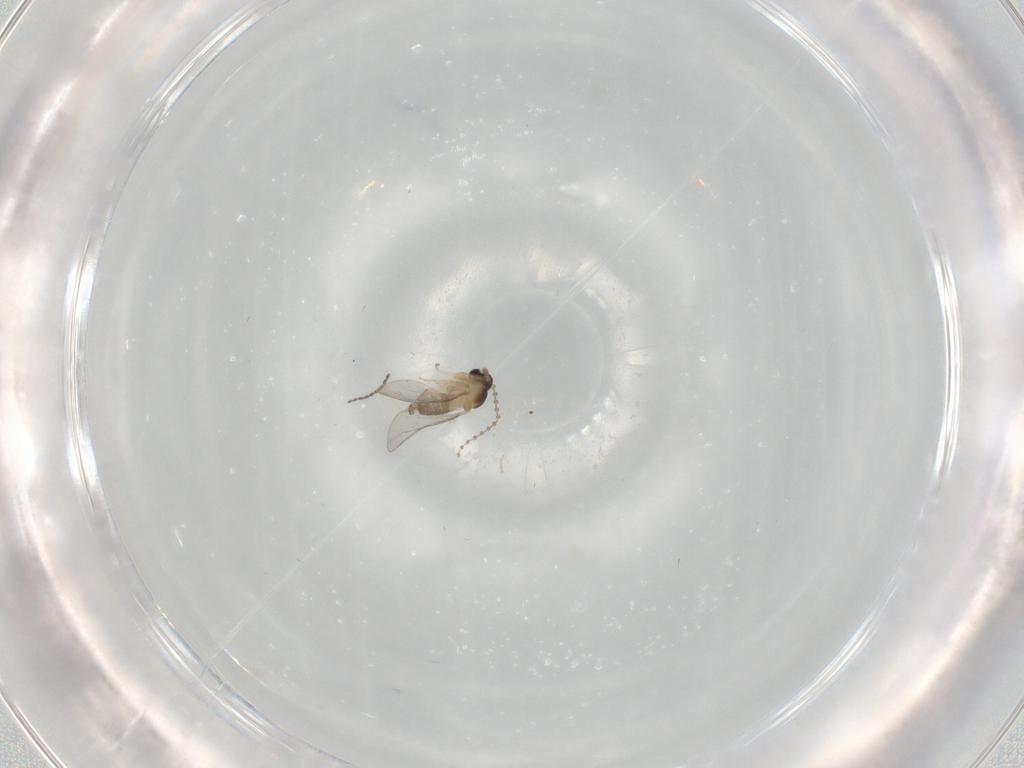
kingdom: Animalia
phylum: Arthropoda
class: Insecta
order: Diptera
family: Cecidomyiidae
